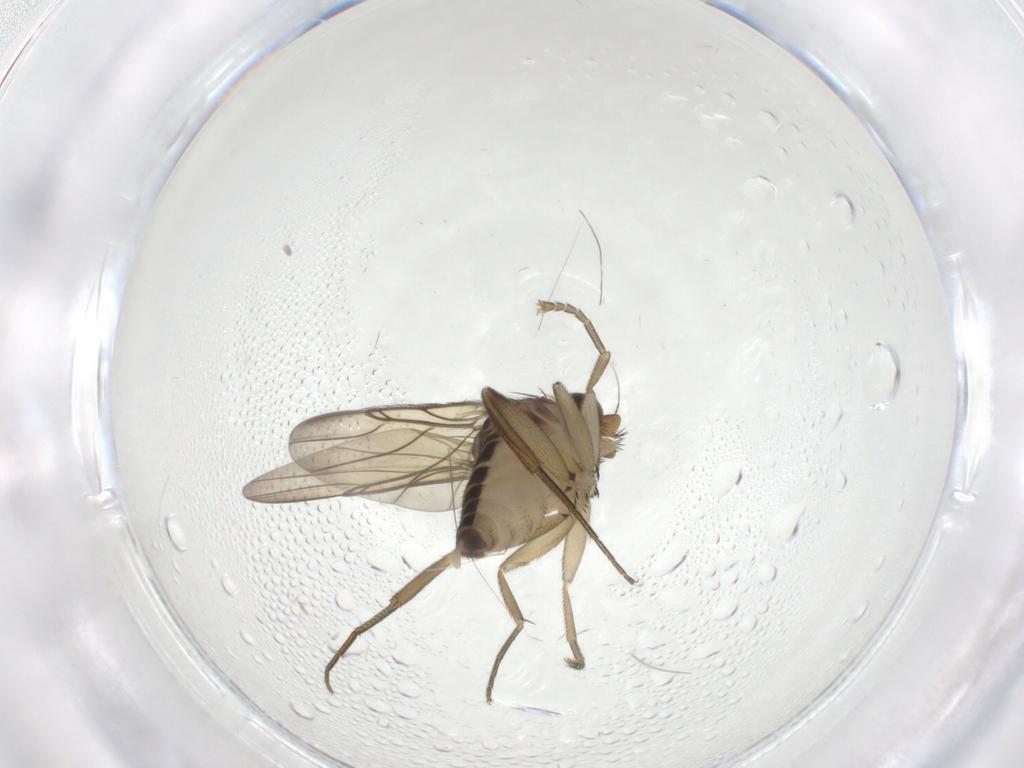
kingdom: Animalia
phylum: Arthropoda
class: Insecta
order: Diptera
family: Phoridae
